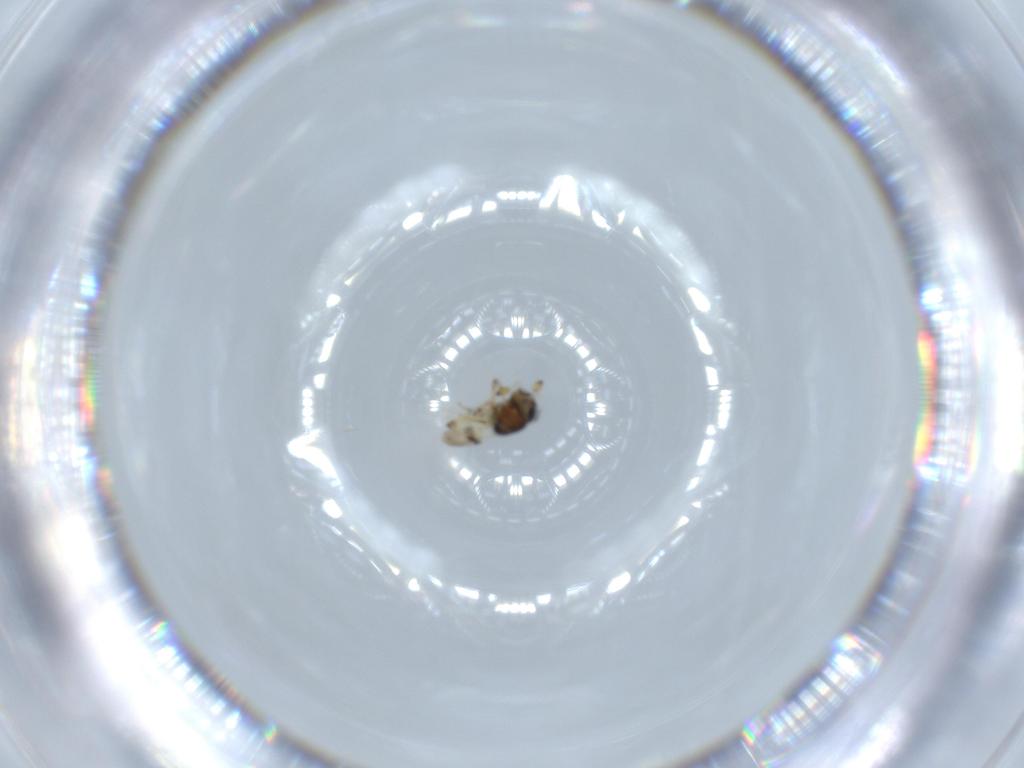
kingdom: Animalia
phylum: Arthropoda
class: Insecta
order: Hymenoptera
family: Scelionidae
